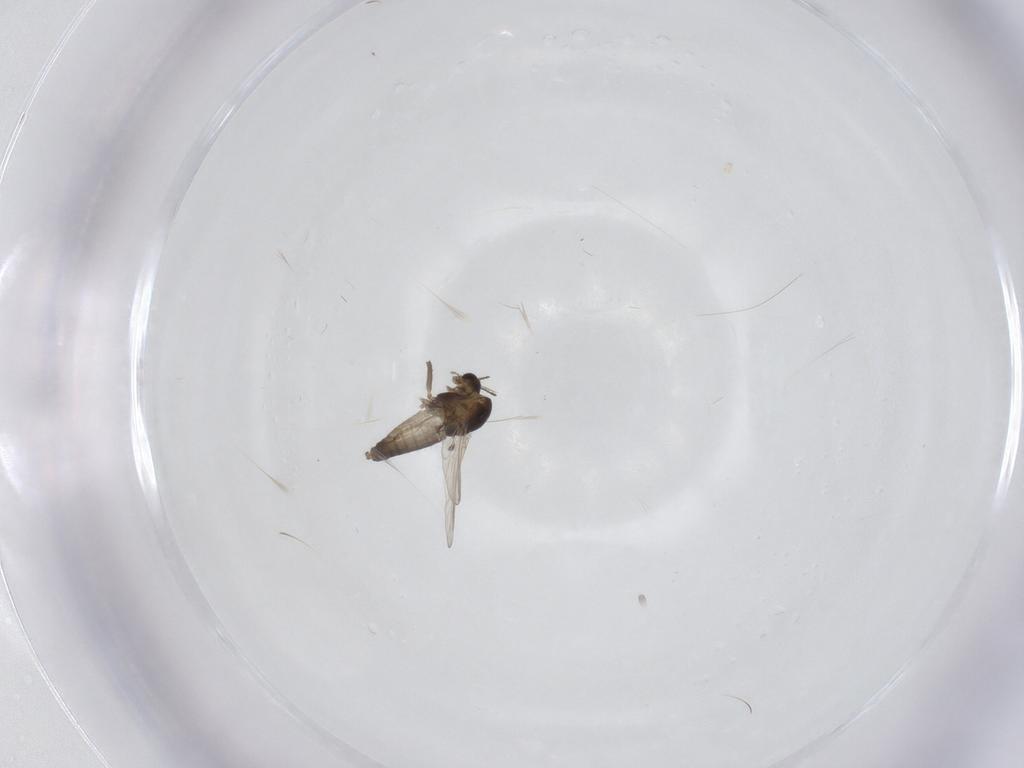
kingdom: Animalia
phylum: Arthropoda
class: Insecta
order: Diptera
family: Chironomidae
